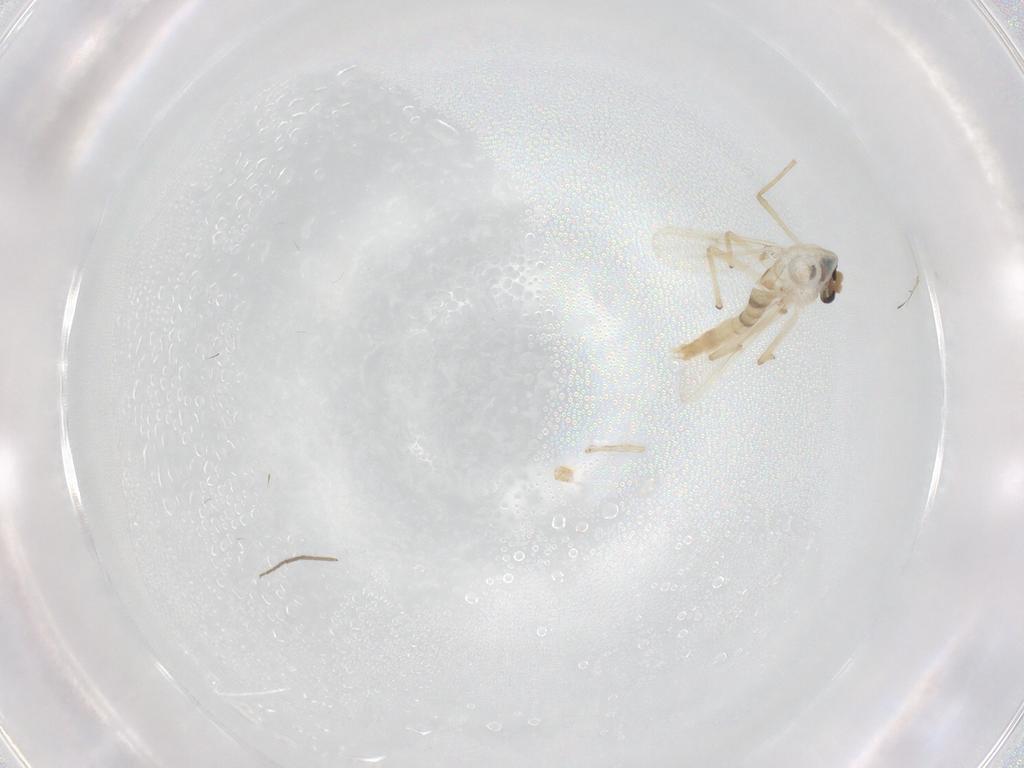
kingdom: Animalia
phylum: Arthropoda
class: Insecta
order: Diptera
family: Chironomidae
